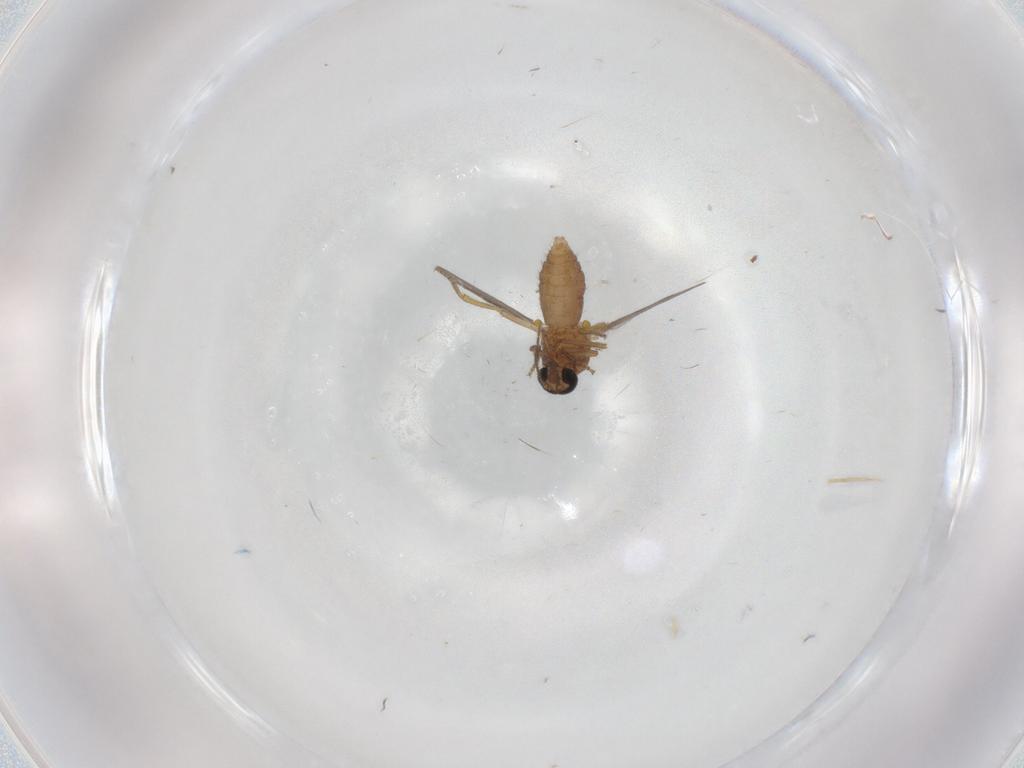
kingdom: Animalia
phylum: Arthropoda
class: Insecta
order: Diptera
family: Ceratopogonidae
